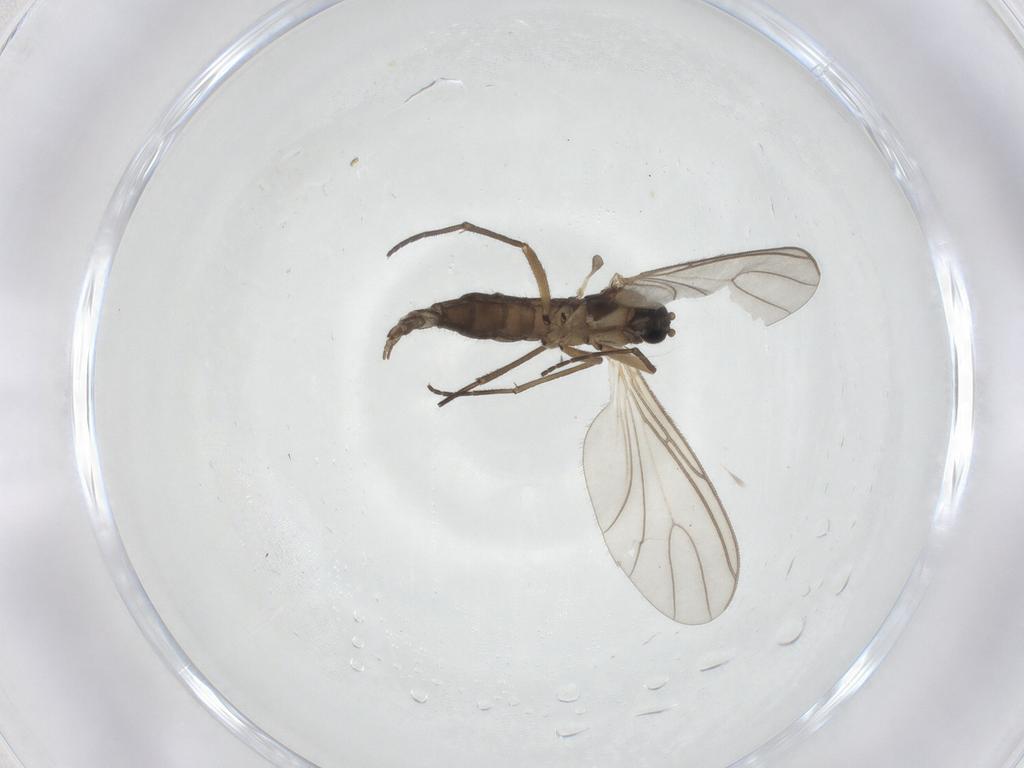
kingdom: Animalia
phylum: Arthropoda
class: Insecta
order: Diptera
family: Sciaridae
